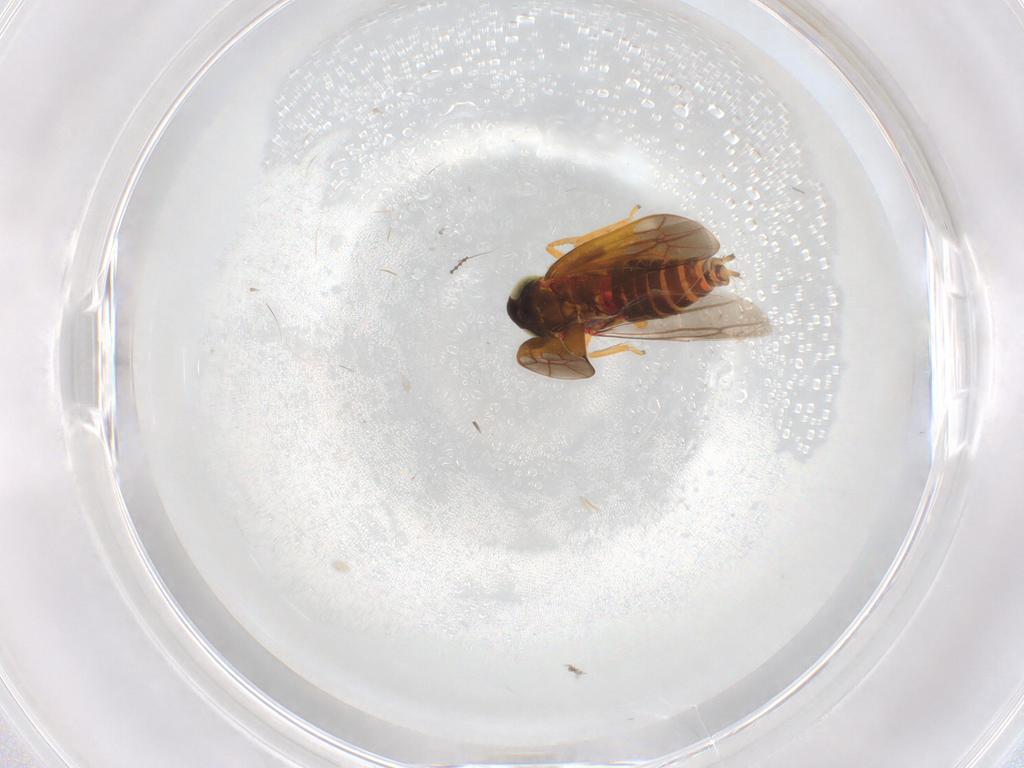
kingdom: Animalia
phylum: Arthropoda
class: Insecta
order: Hemiptera
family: Cicadellidae
